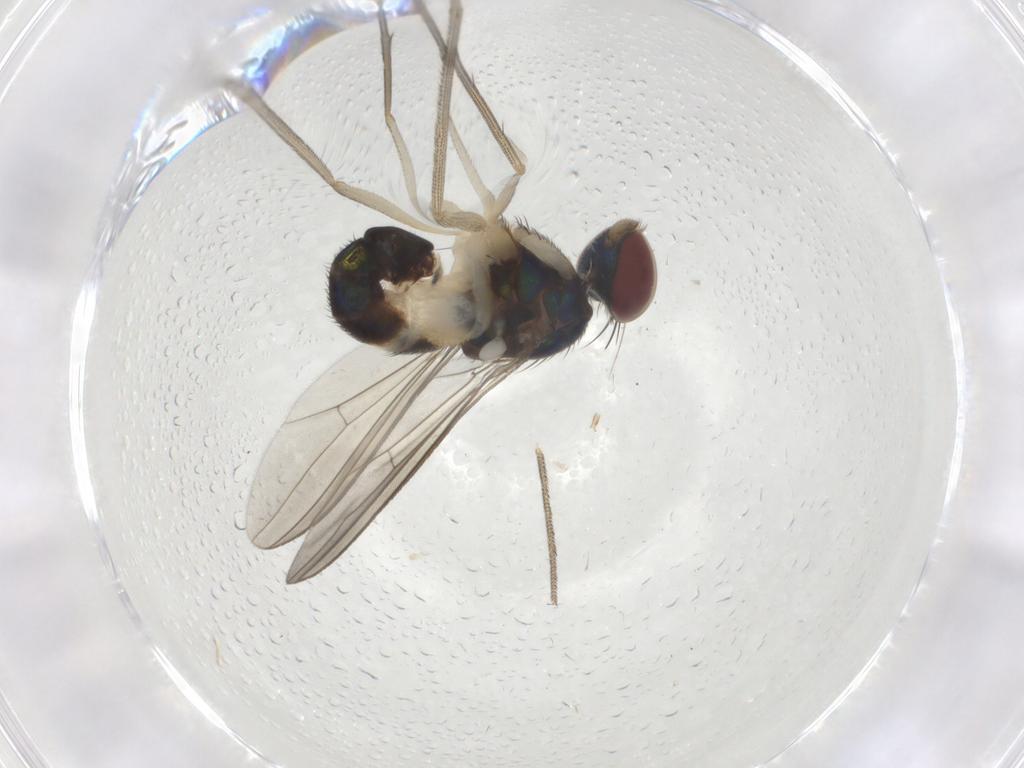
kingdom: Animalia
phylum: Arthropoda
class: Insecta
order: Diptera
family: Dolichopodidae
